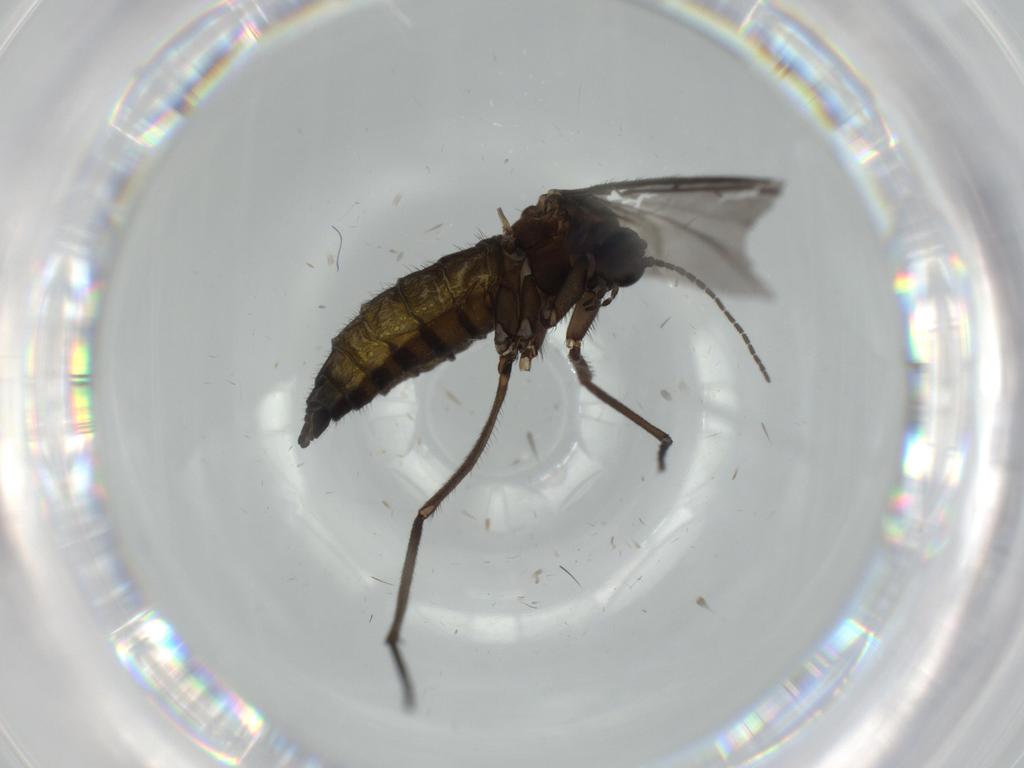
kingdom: Animalia
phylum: Arthropoda
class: Insecta
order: Diptera
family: Sciaridae
